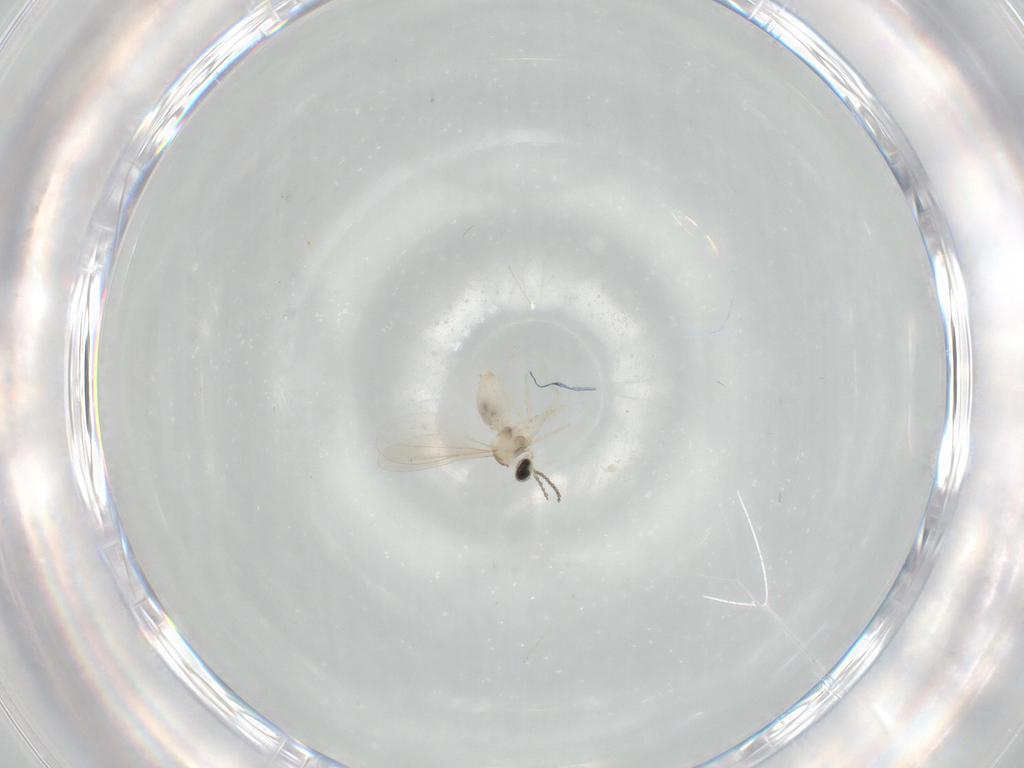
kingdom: Animalia
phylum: Arthropoda
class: Insecta
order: Diptera
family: Cecidomyiidae
